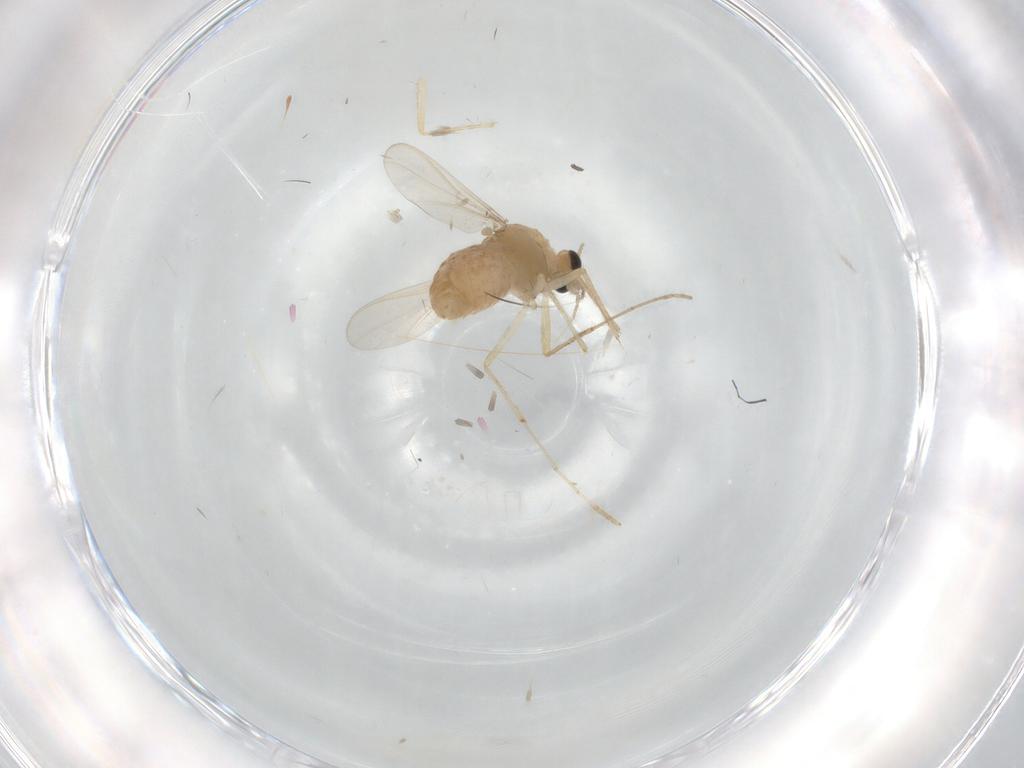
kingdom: Animalia
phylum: Arthropoda
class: Insecta
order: Diptera
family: Chironomidae
